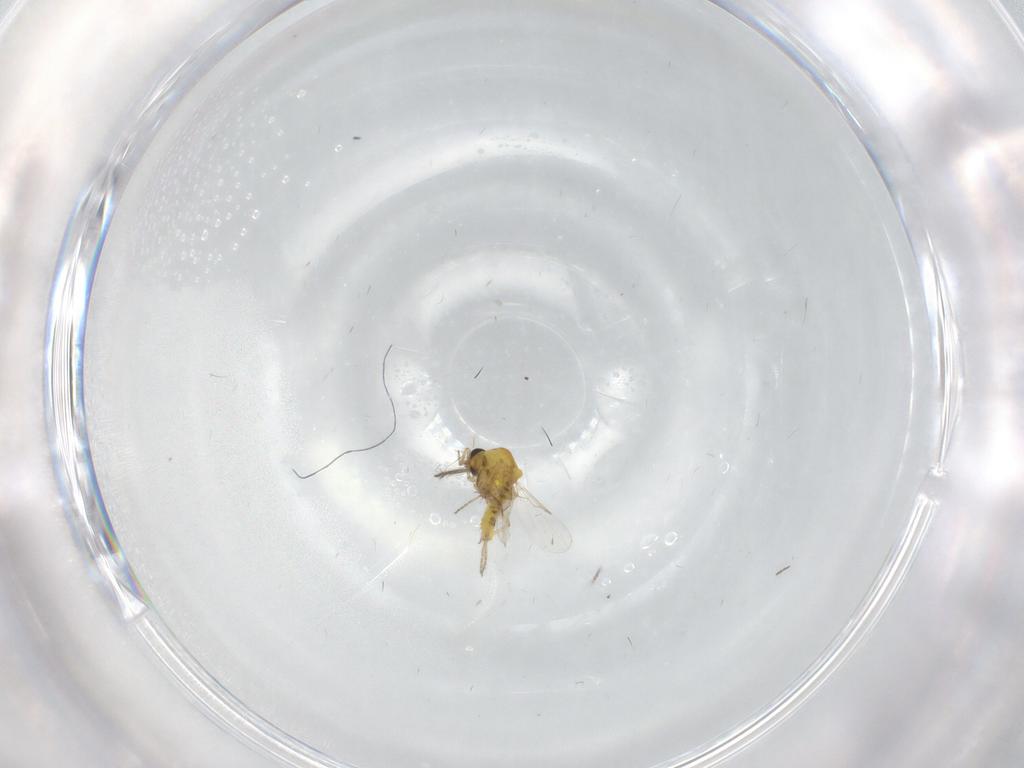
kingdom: Animalia
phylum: Arthropoda
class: Insecta
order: Diptera
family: Ceratopogonidae
